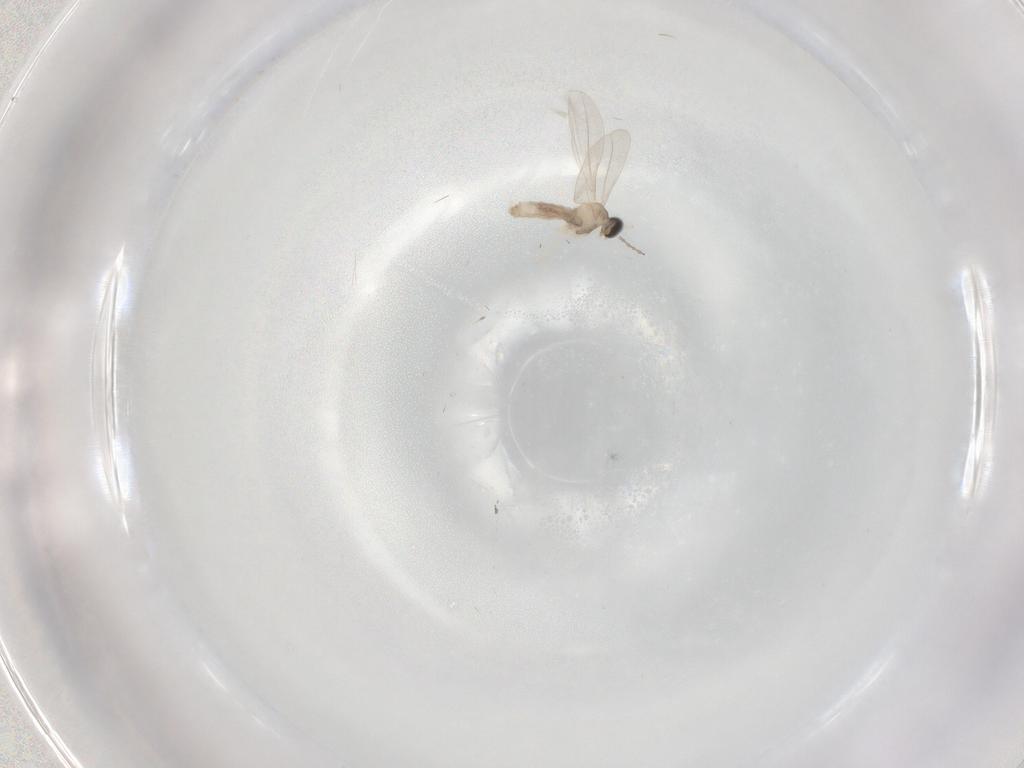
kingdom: Animalia
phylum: Arthropoda
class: Insecta
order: Diptera
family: Cecidomyiidae
